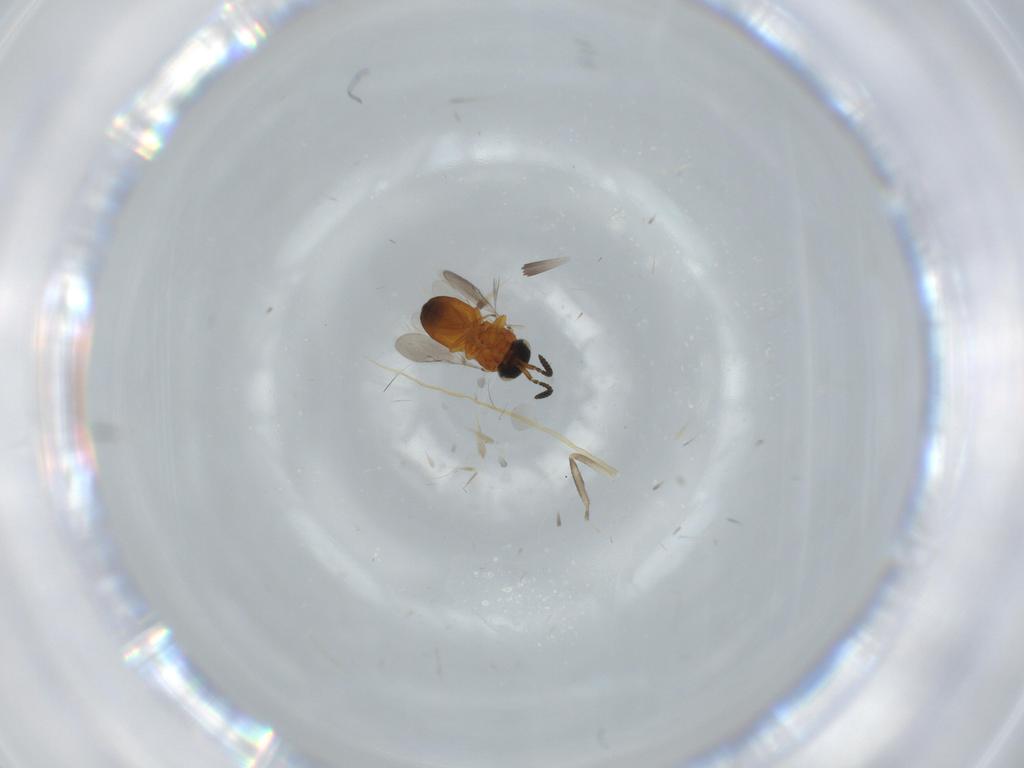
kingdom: Animalia
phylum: Arthropoda
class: Insecta
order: Hymenoptera
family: Scelionidae
